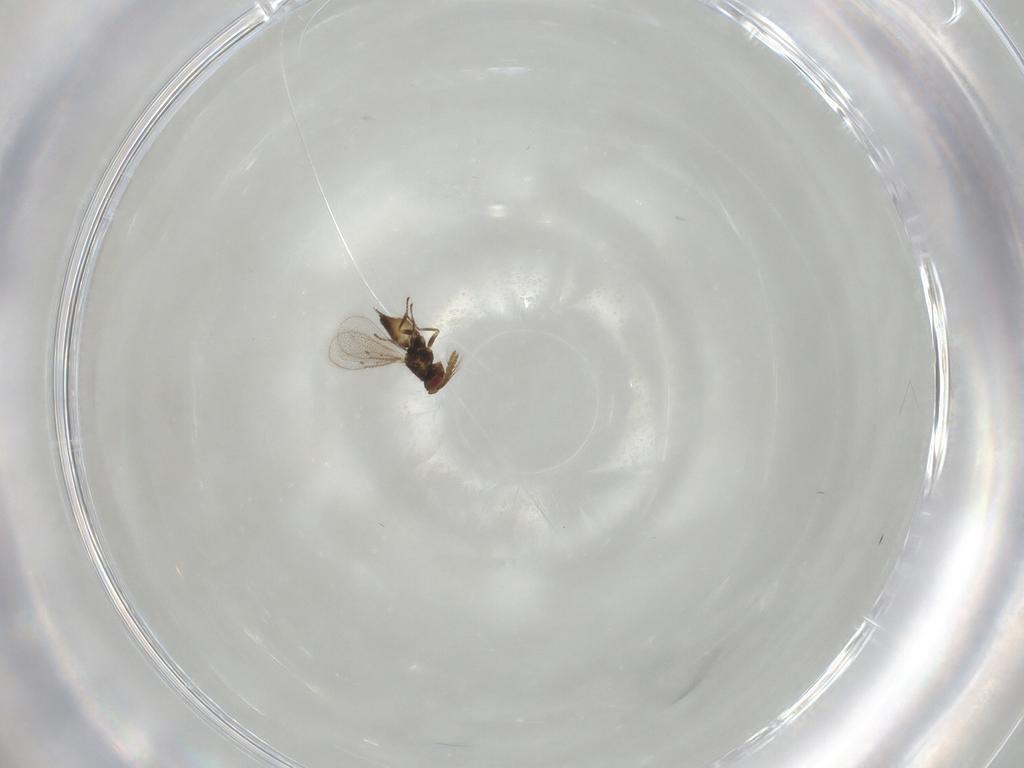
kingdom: Animalia
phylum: Arthropoda
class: Insecta
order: Hymenoptera
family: Eulophidae
